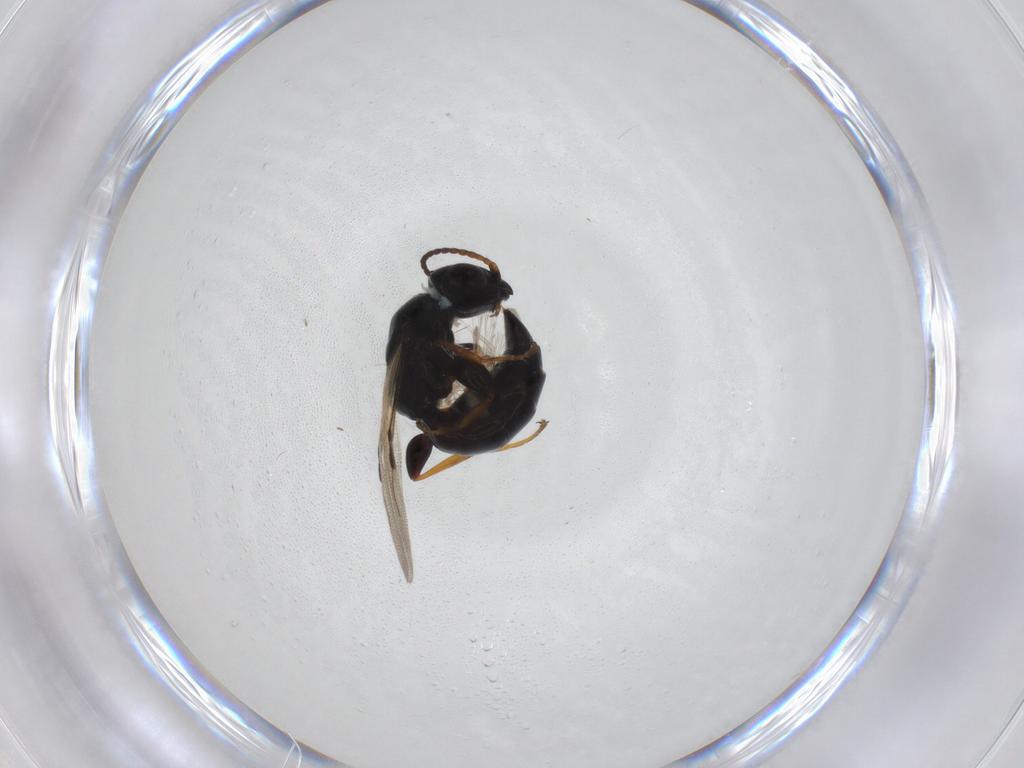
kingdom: Animalia
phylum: Arthropoda
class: Insecta
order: Hymenoptera
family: Bethylidae
